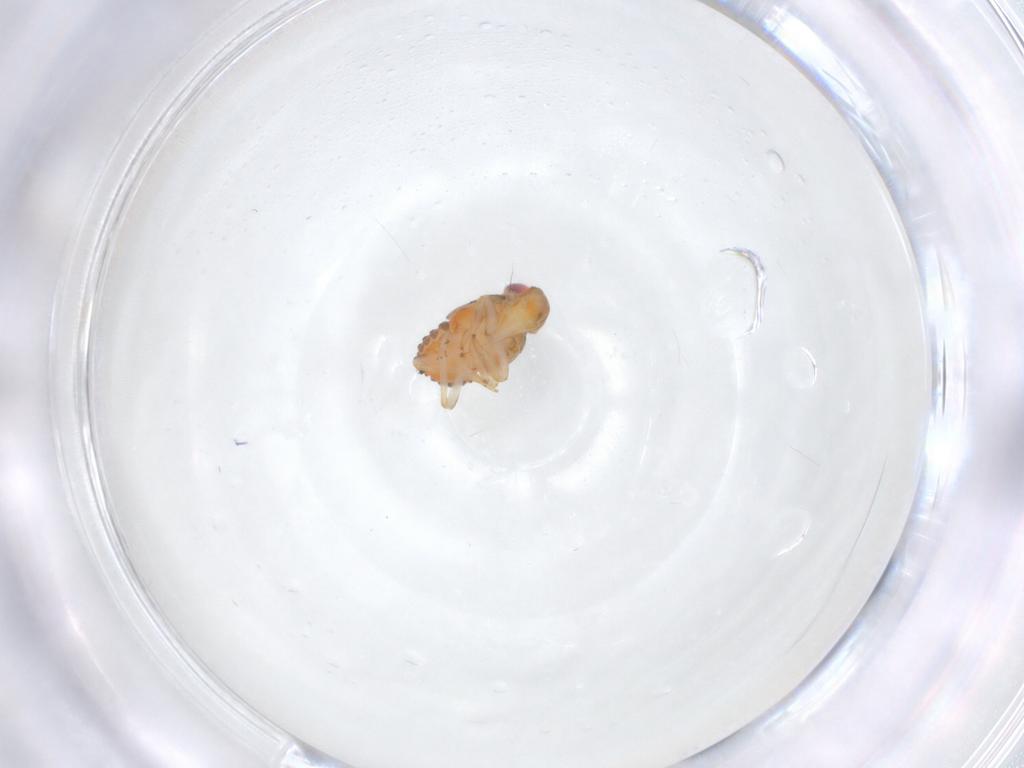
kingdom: Animalia
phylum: Arthropoda
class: Insecta
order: Hemiptera
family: Issidae
